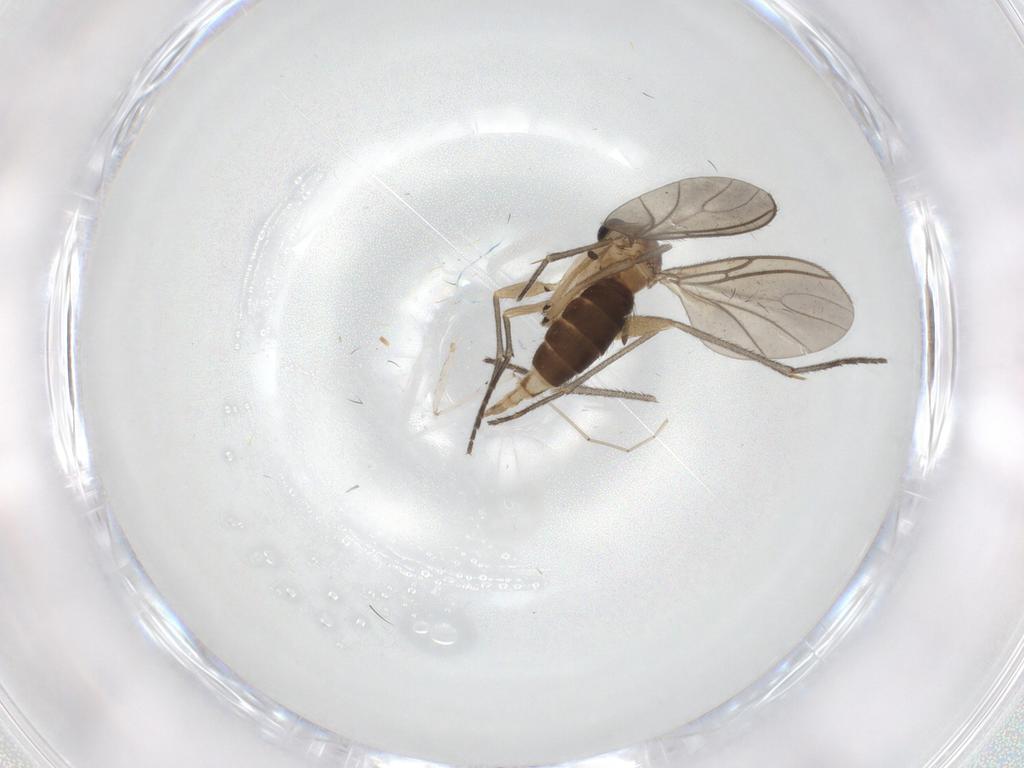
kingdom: Animalia
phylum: Arthropoda
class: Insecta
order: Diptera
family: Sciaridae
